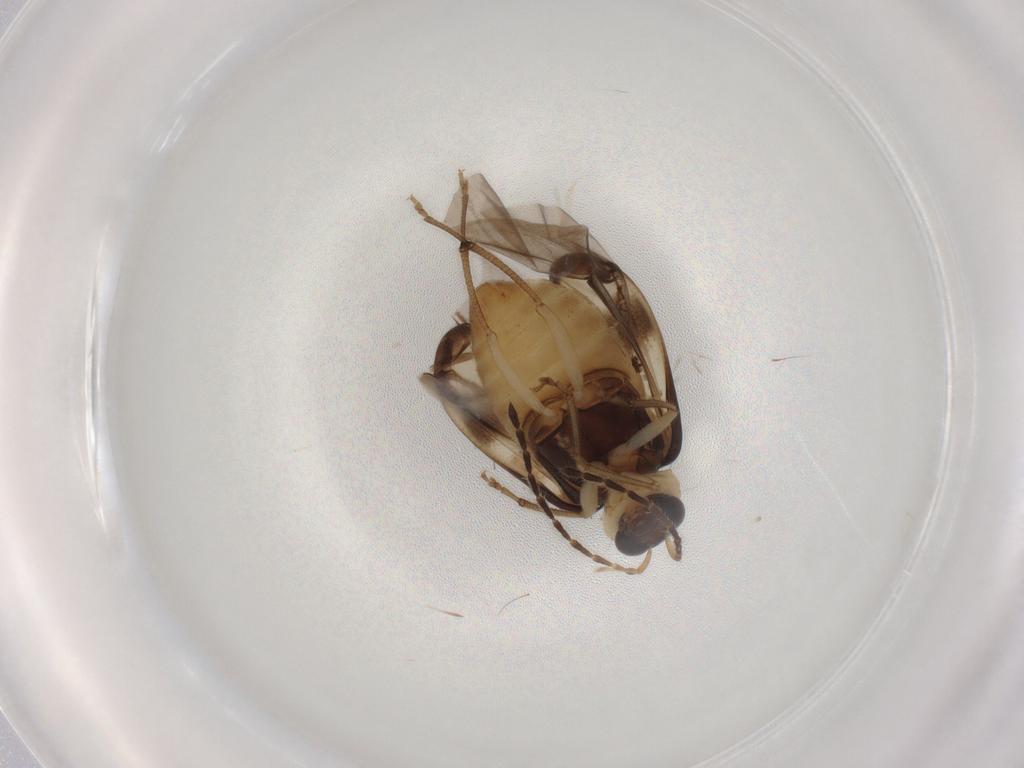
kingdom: Animalia
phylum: Arthropoda
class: Insecta
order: Coleoptera
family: Chrysomelidae
